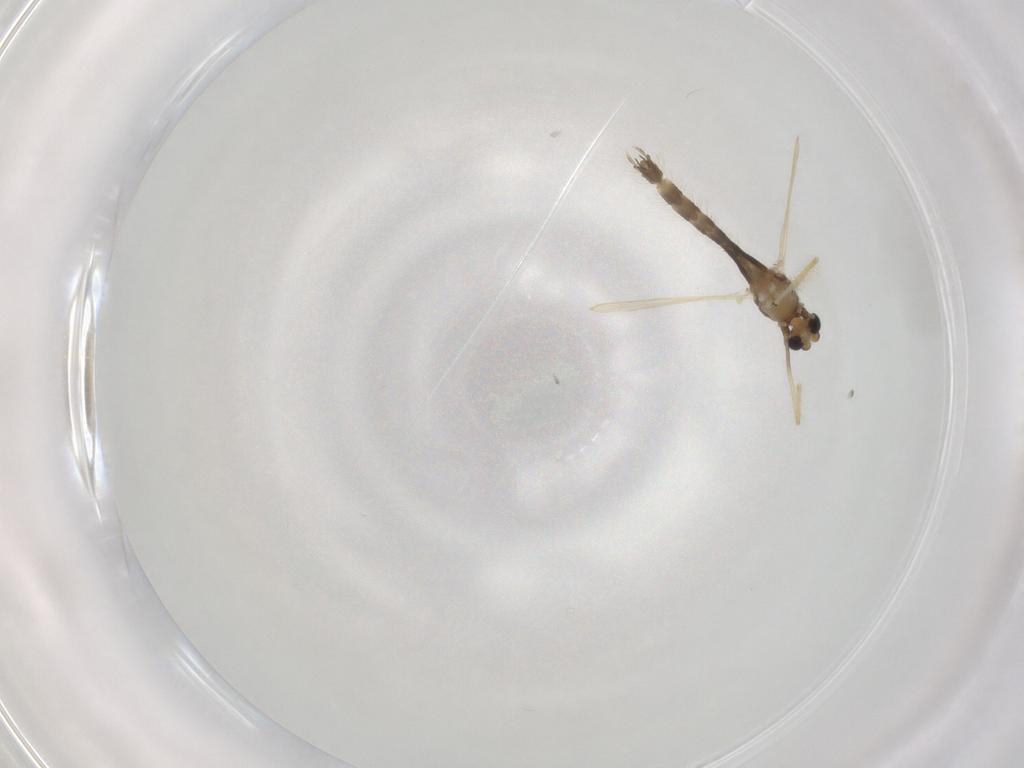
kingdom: Animalia
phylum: Arthropoda
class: Insecta
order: Diptera
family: Chironomidae
